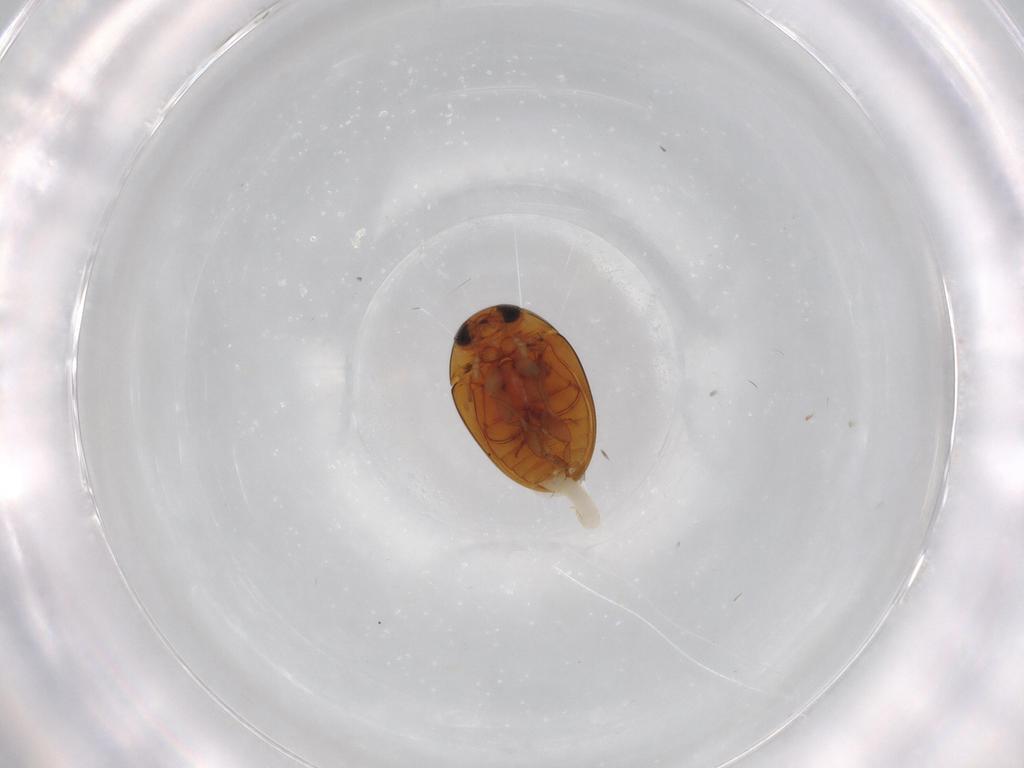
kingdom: Animalia
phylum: Arthropoda
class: Insecta
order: Coleoptera
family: Phalacridae
